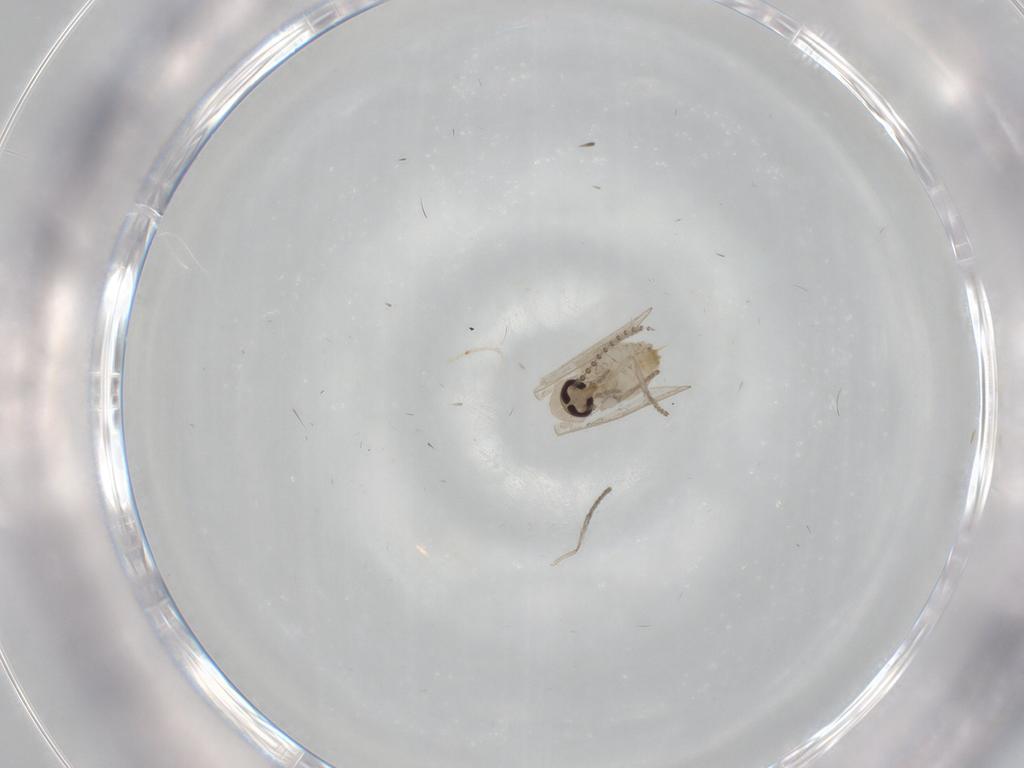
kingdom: Animalia
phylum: Arthropoda
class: Insecta
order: Diptera
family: Psychodidae
